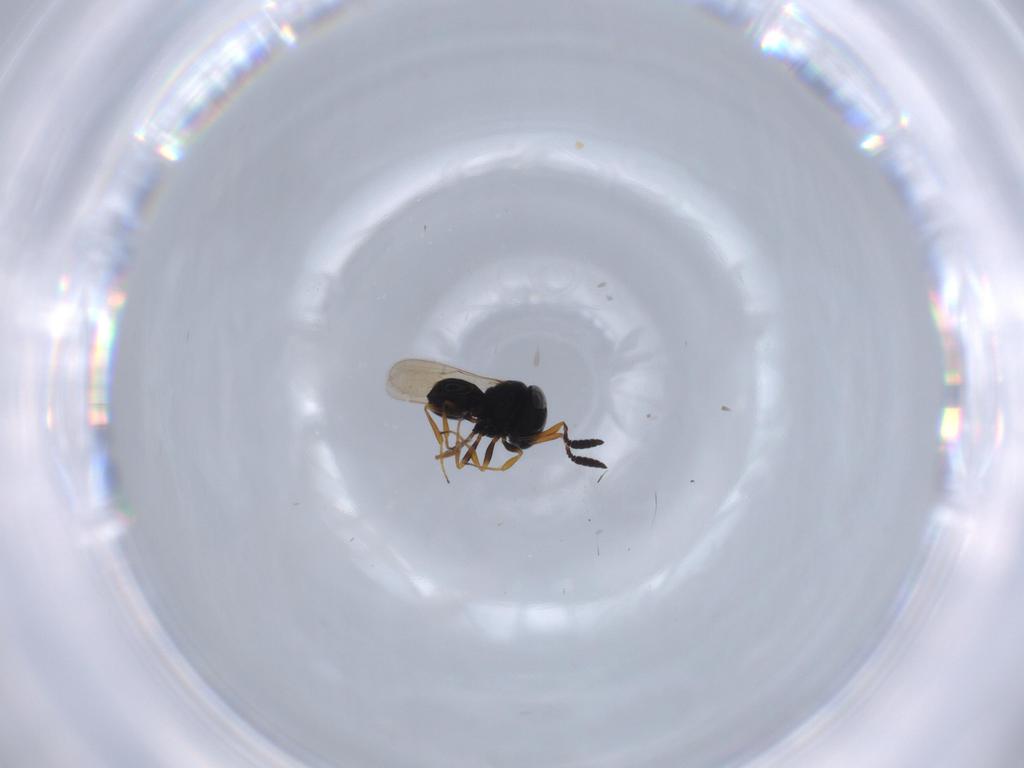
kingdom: Animalia
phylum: Arthropoda
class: Insecta
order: Hymenoptera
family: Scelionidae
